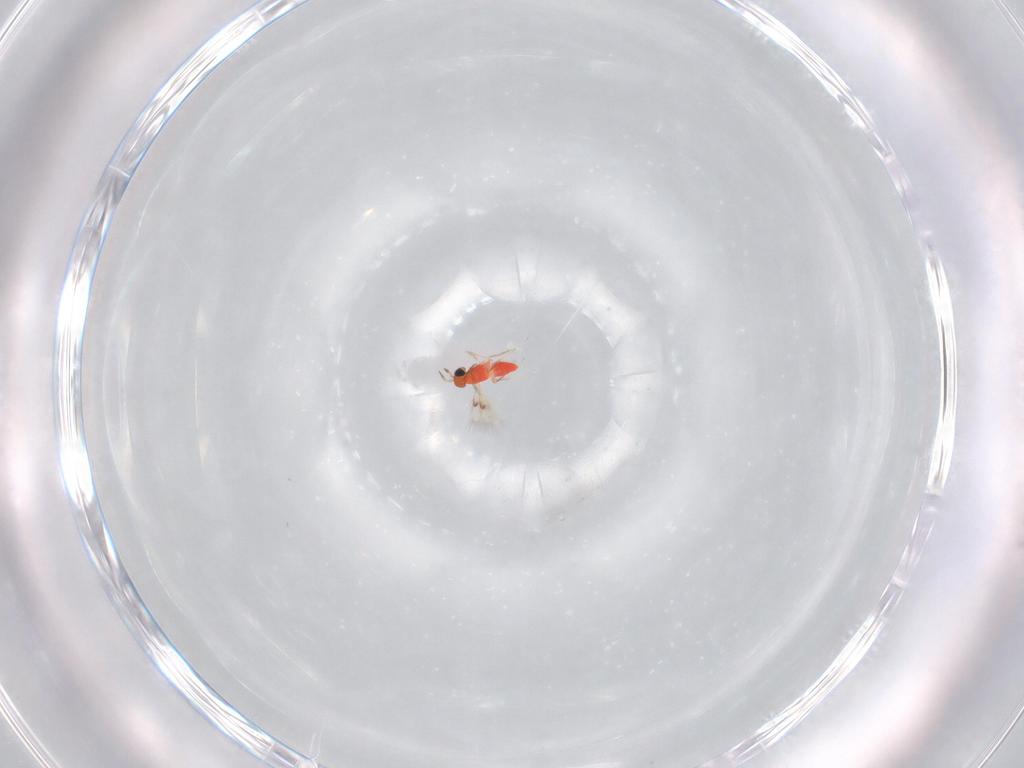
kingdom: Animalia
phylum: Arthropoda
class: Insecta
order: Hymenoptera
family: Trichogrammatidae
